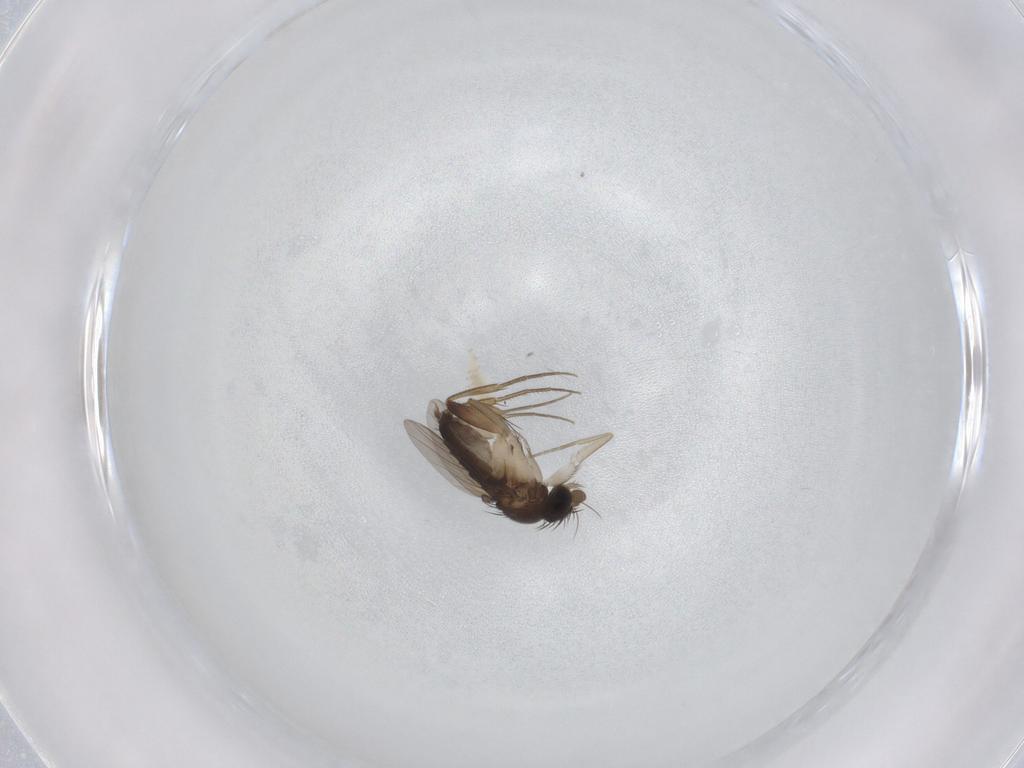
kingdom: Animalia
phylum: Arthropoda
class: Insecta
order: Diptera
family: Phoridae
